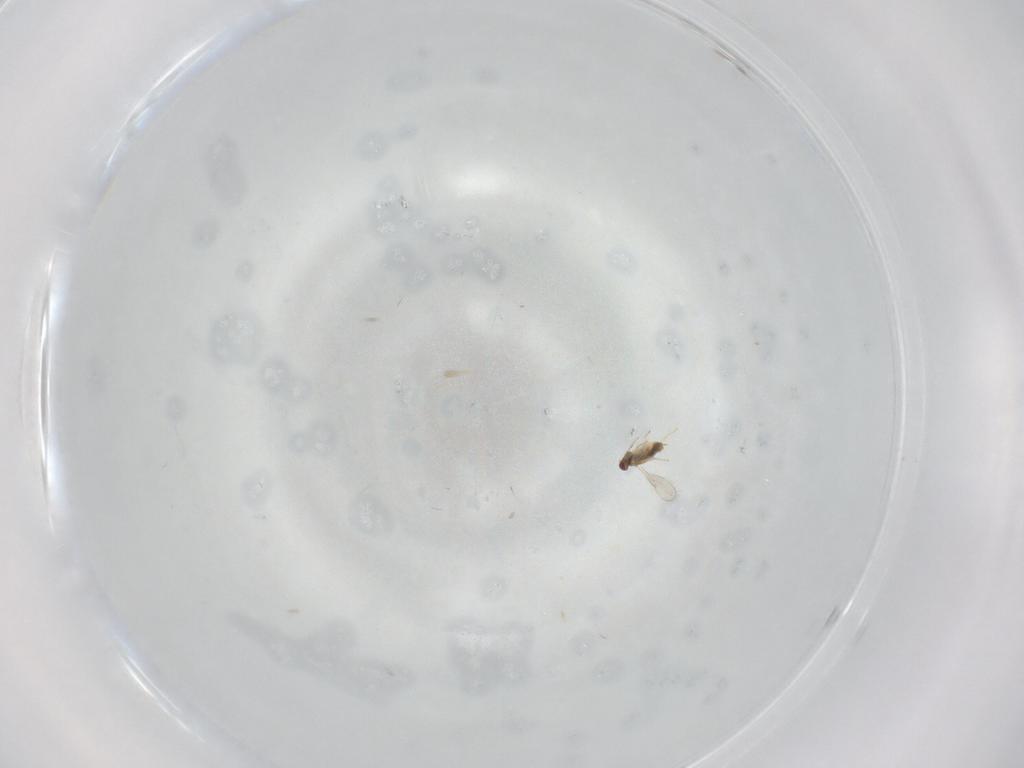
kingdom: Animalia
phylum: Arthropoda
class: Insecta
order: Hymenoptera
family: Aphelinidae
